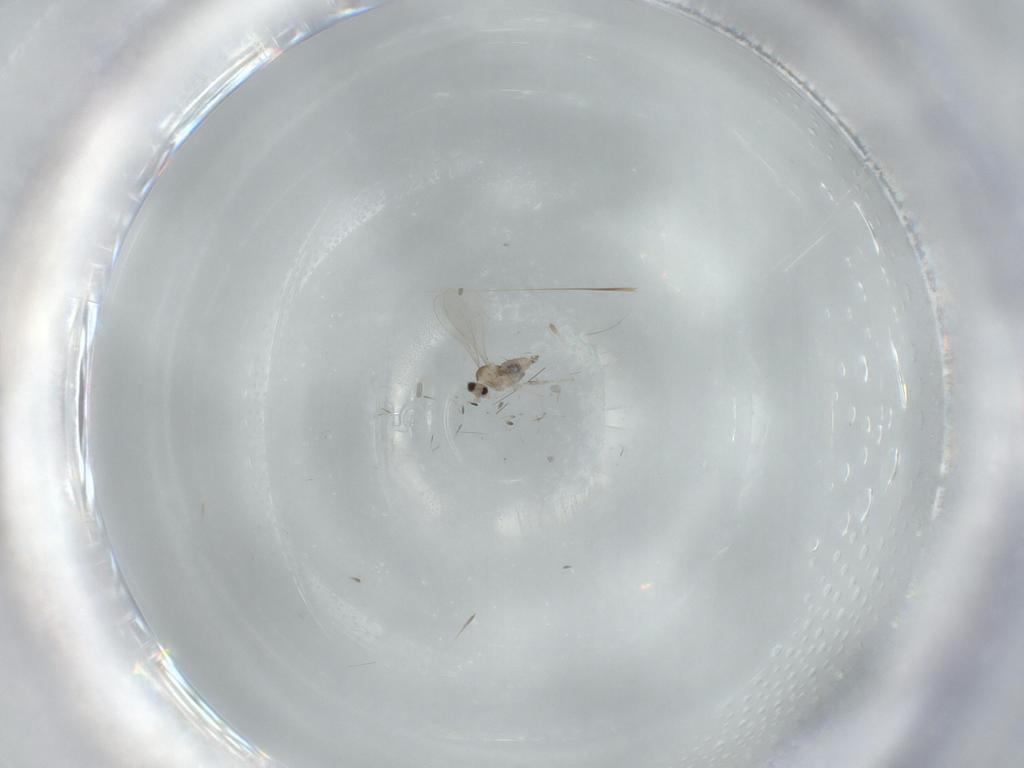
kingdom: Animalia
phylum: Arthropoda
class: Insecta
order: Diptera
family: Cecidomyiidae
